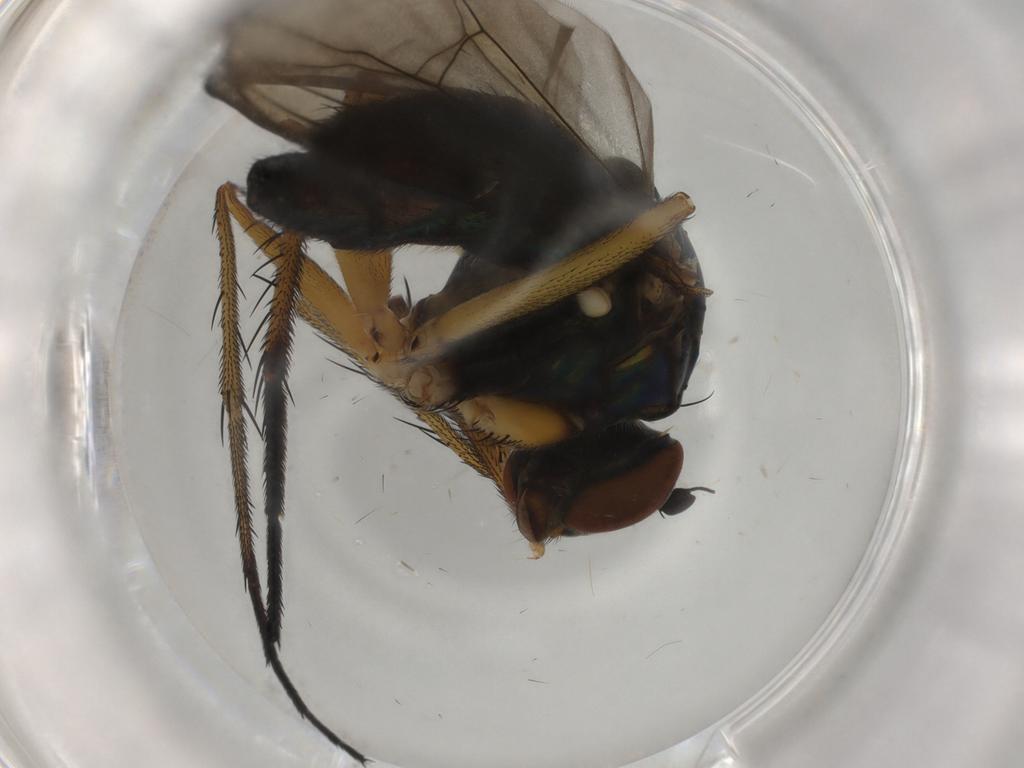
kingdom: Animalia
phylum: Arthropoda
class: Insecta
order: Diptera
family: Dolichopodidae
